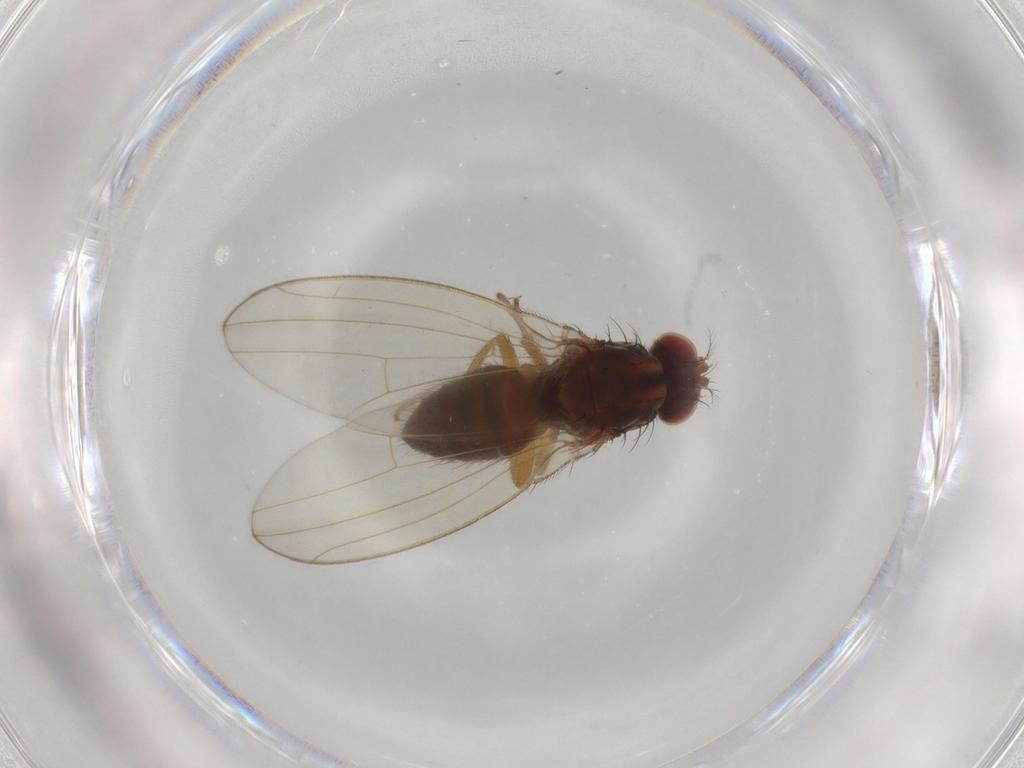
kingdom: Animalia
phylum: Arthropoda
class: Insecta
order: Diptera
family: Drosophilidae
